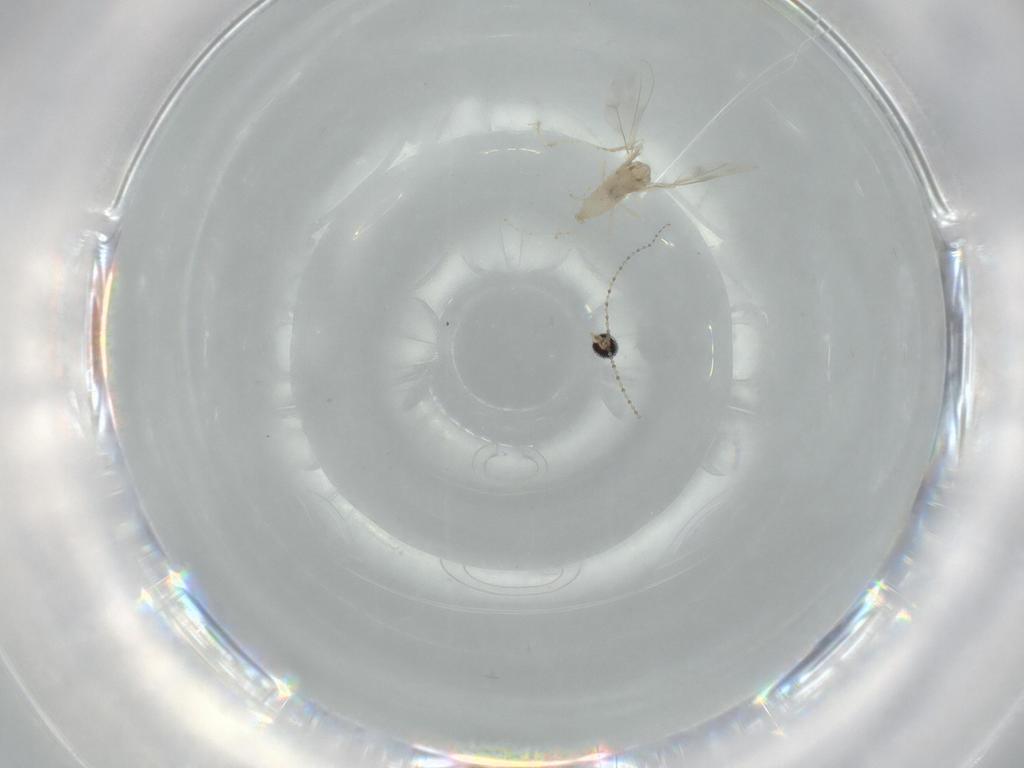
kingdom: Animalia
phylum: Arthropoda
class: Insecta
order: Diptera
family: Cecidomyiidae
